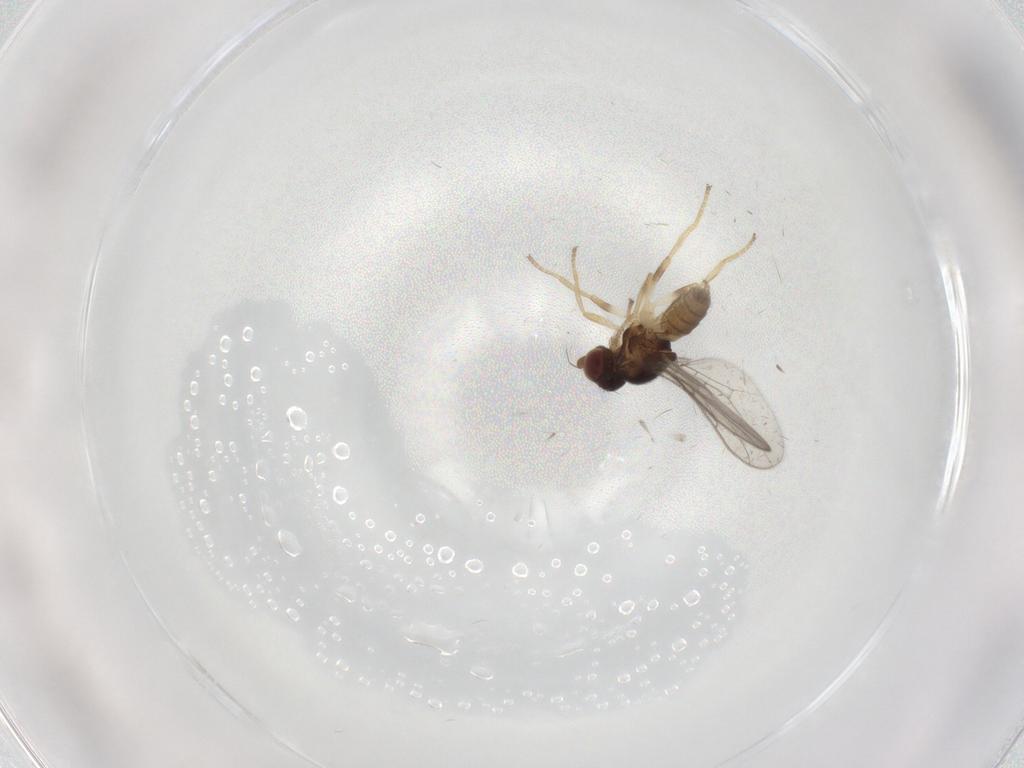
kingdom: Animalia
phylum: Arthropoda
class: Insecta
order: Diptera
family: Chloropidae
